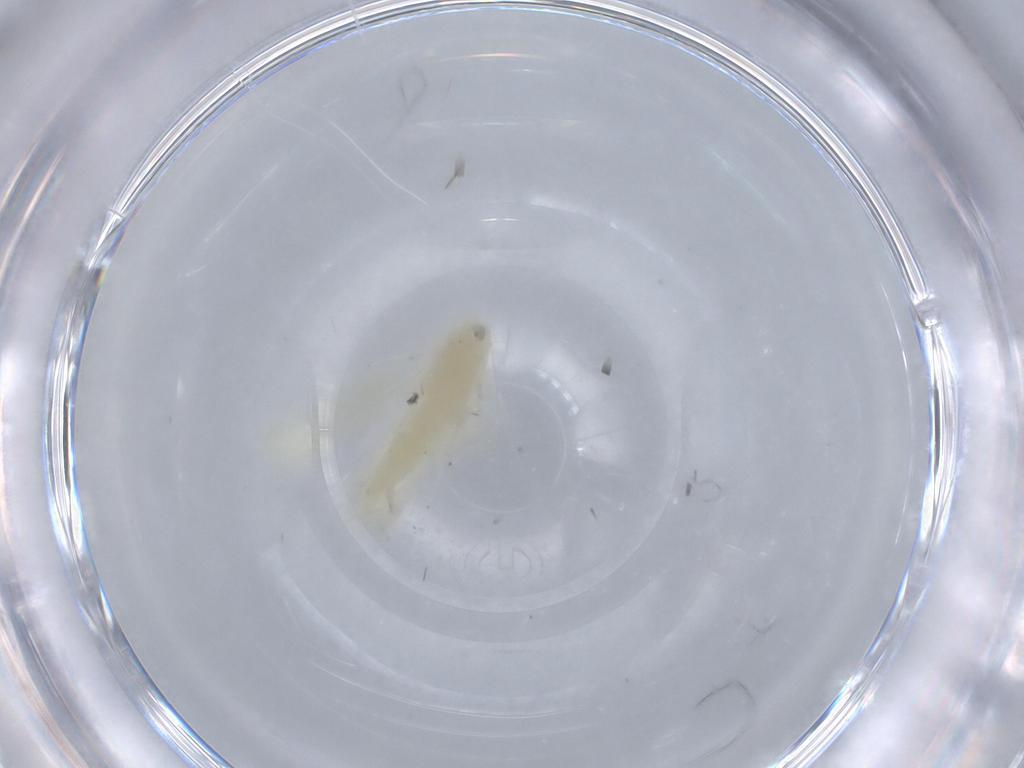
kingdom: Animalia
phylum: Arthropoda
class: Insecta
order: Hemiptera
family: Cicadellidae
